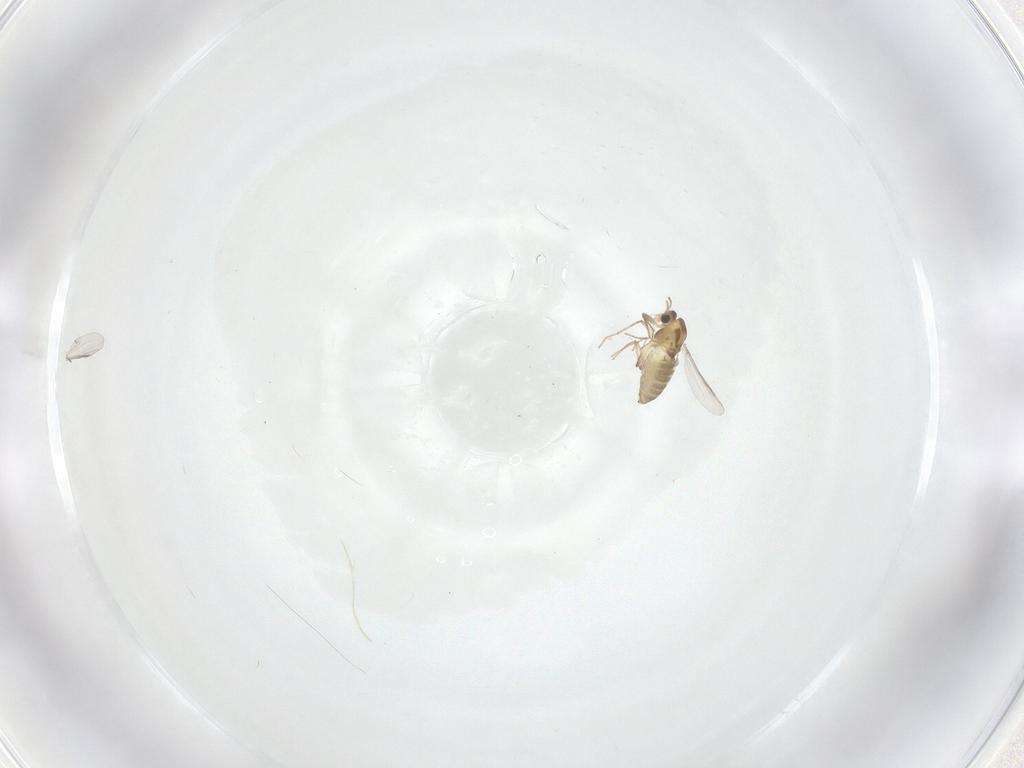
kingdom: Animalia
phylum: Arthropoda
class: Insecta
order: Diptera
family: Chironomidae
